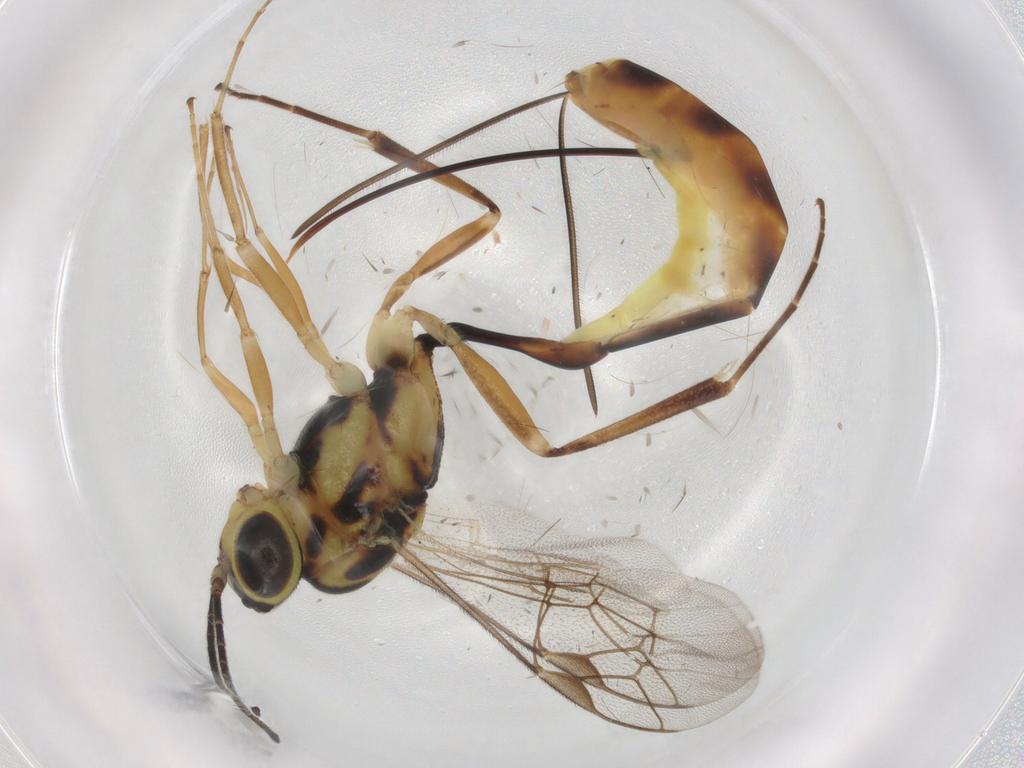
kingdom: Animalia
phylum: Arthropoda
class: Insecta
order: Hymenoptera
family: Ichneumonidae
